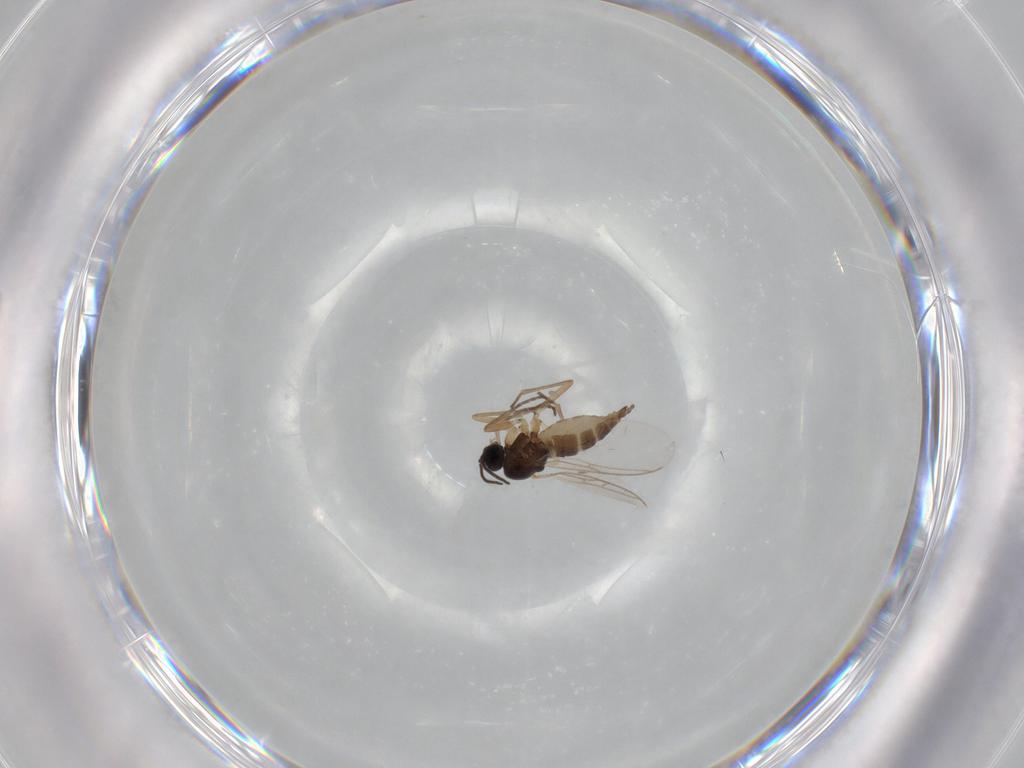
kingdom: Animalia
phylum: Arthropoda
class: Insecta
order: Diptera
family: Sciaridae
